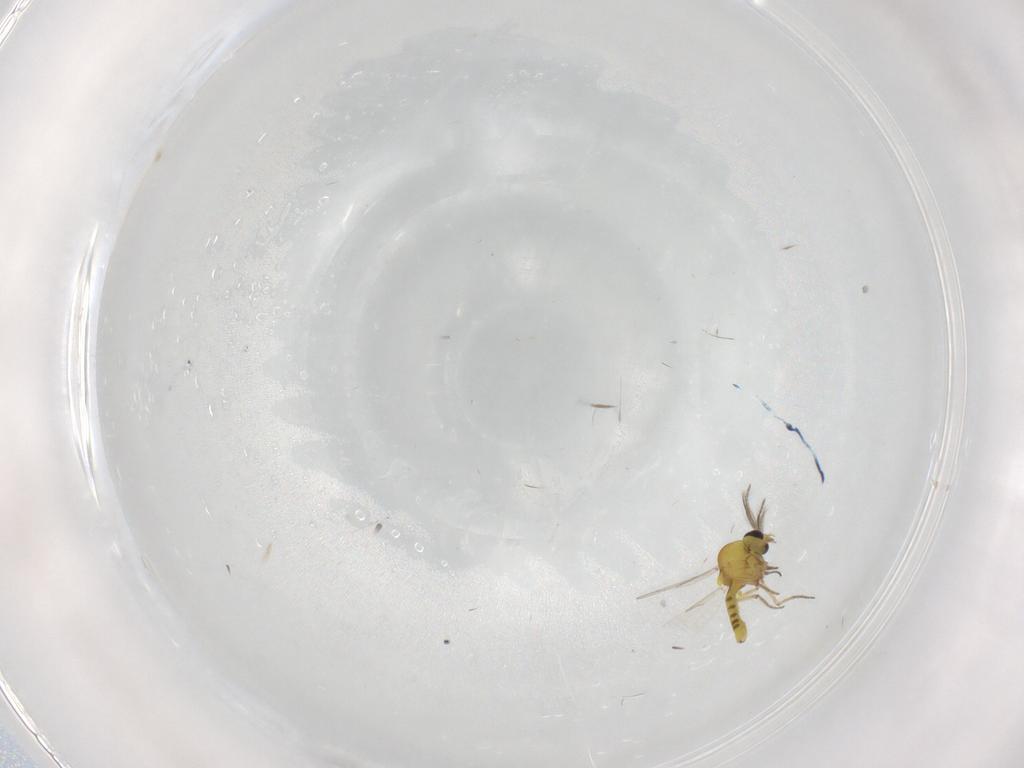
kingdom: Animalia
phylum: Arthropoda
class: Insecta
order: Diptera
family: Ceratopogonidae
